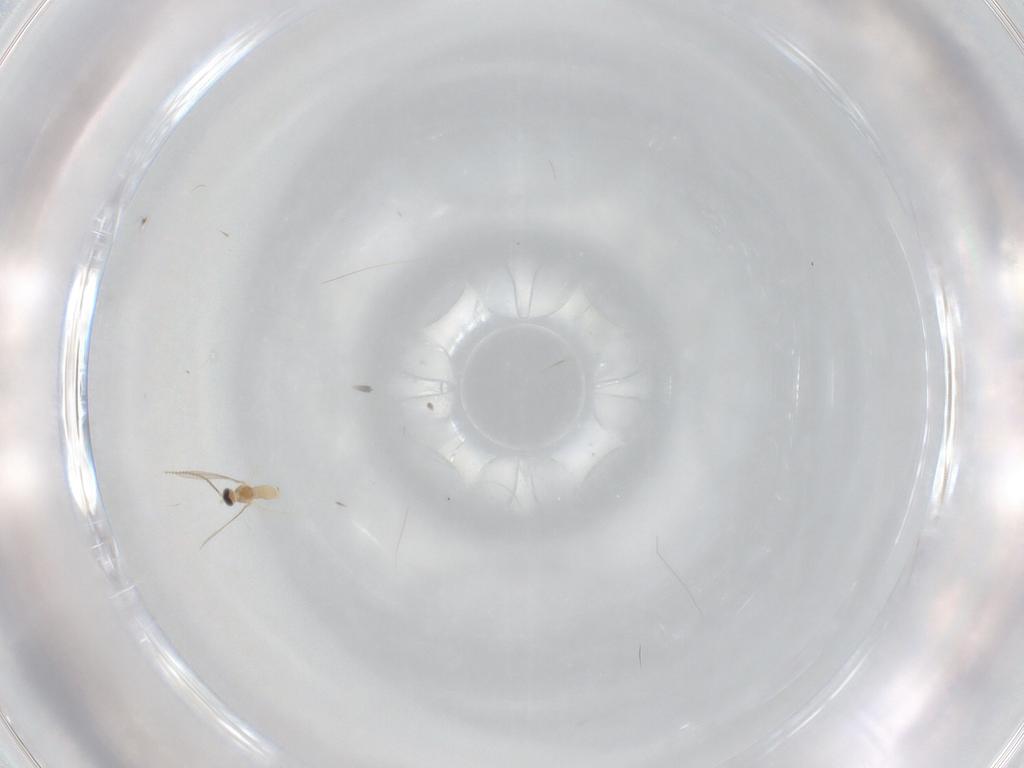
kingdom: Animalia
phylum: Arthropoda
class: Insecta
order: Diptera
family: Cecidomyiidae
